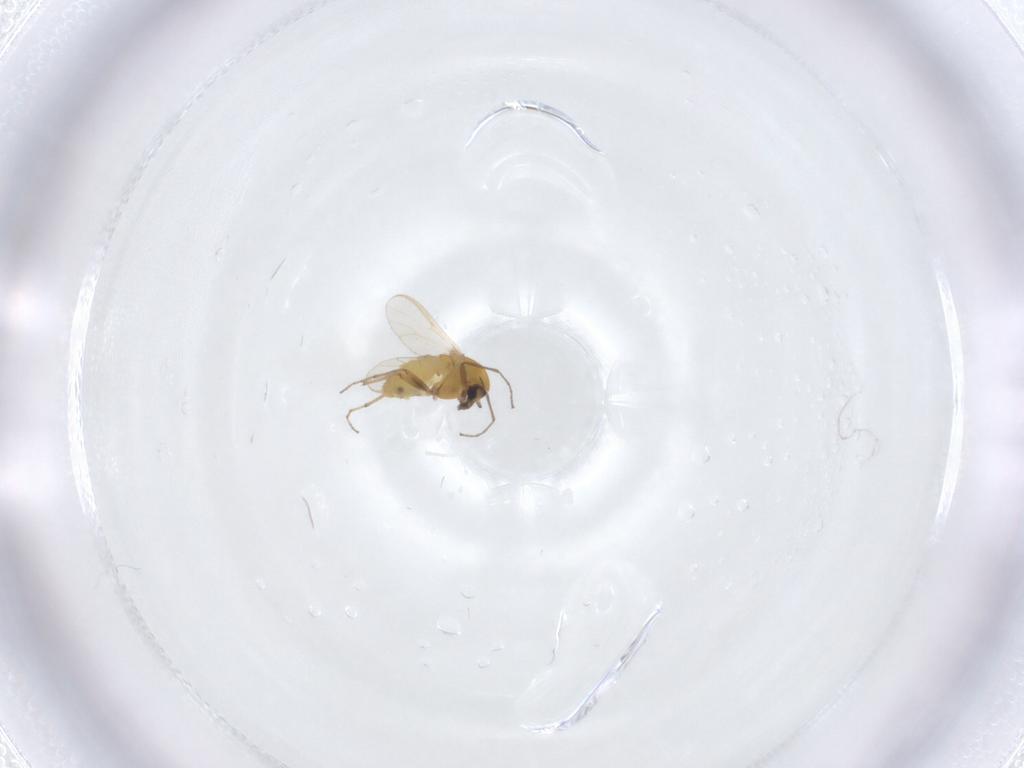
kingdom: Animalia
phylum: Arthropoda
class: Insecta
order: Diptera
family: Chironomidae
